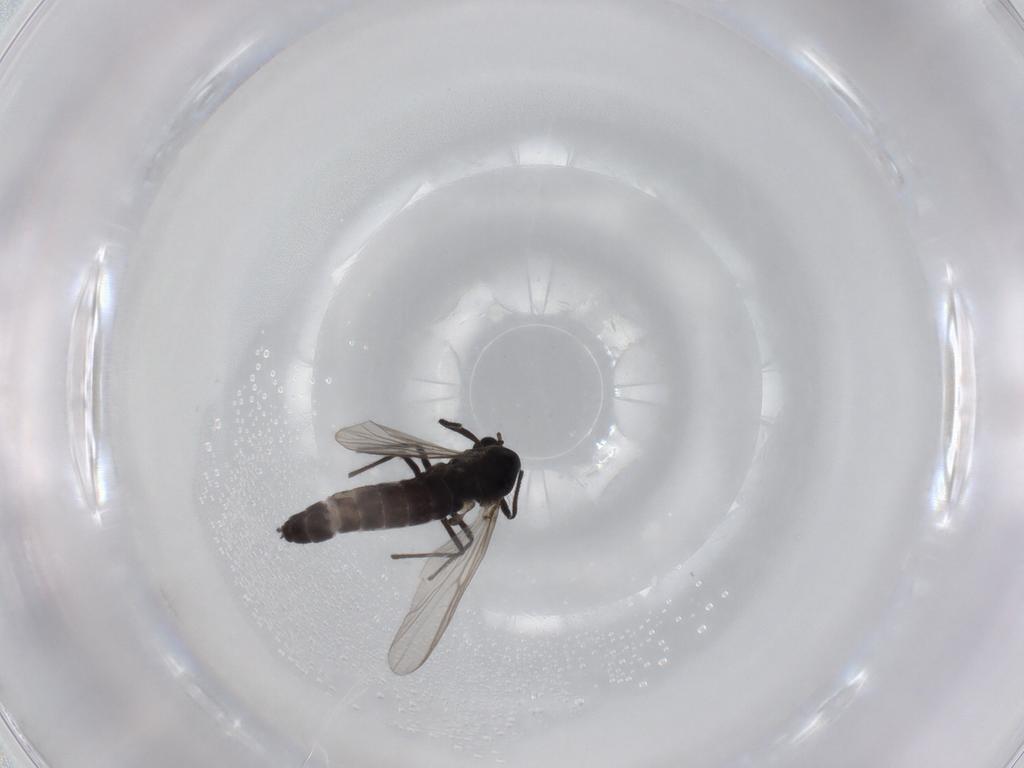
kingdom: Animalia
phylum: Arthropoda
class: Insecta
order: Diptera
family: Chironomidae
